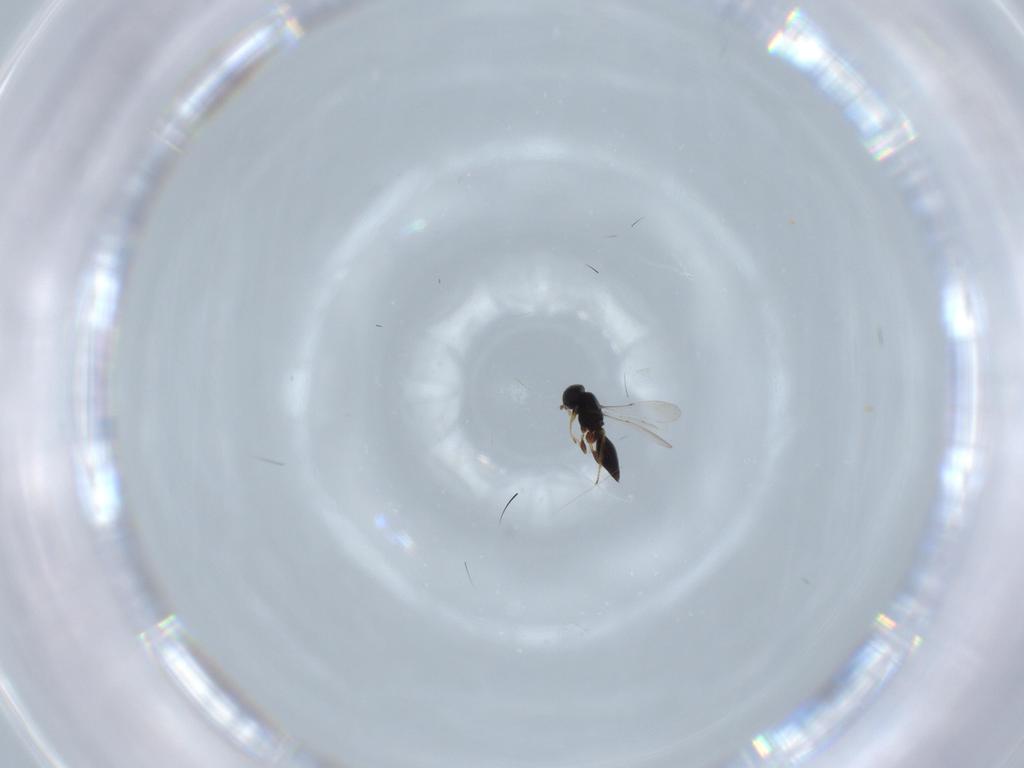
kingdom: Animalia
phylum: Arthropoda
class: Insecta
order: Hymenoptera
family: Platygastridae
